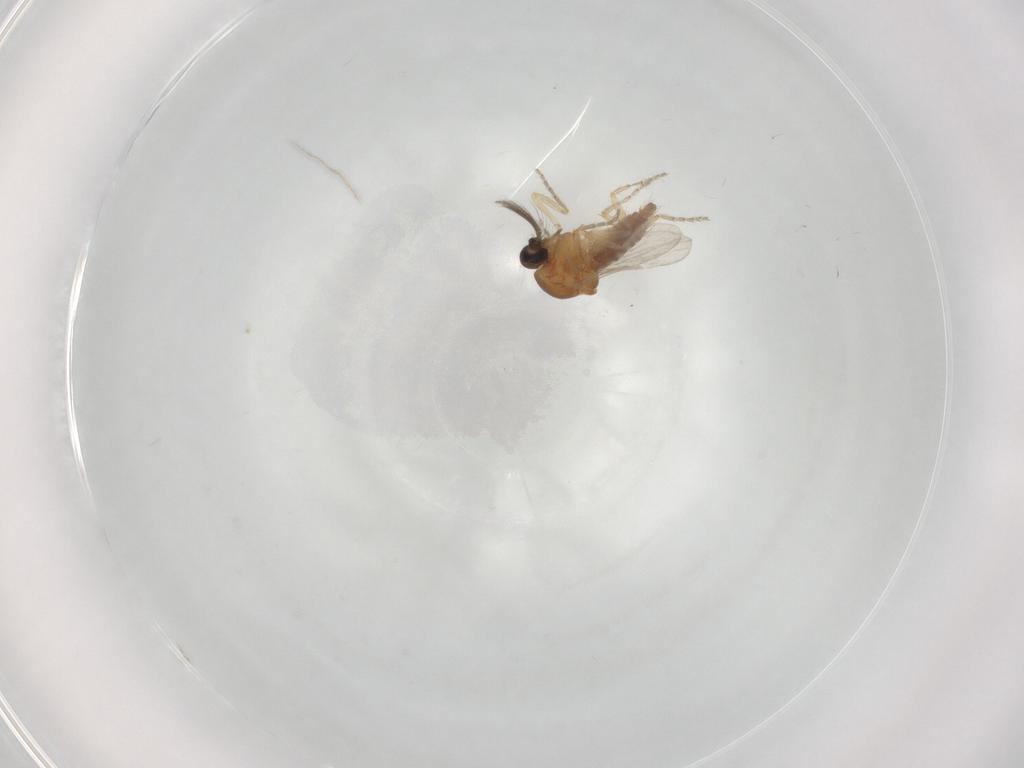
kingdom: Animalia
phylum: Arthropoda
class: Insecta
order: Diptera
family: Ceratopogonidae
